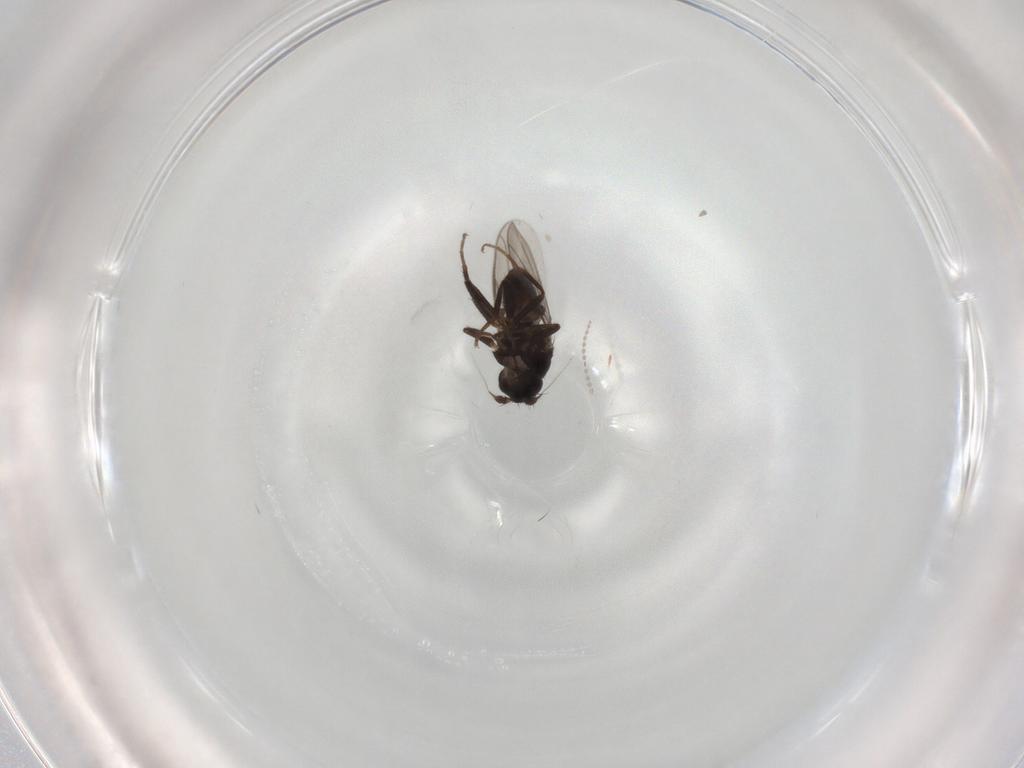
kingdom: Animalia
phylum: Arthropoda
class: Insecta
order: Diptera
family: Sphaeroceridae
